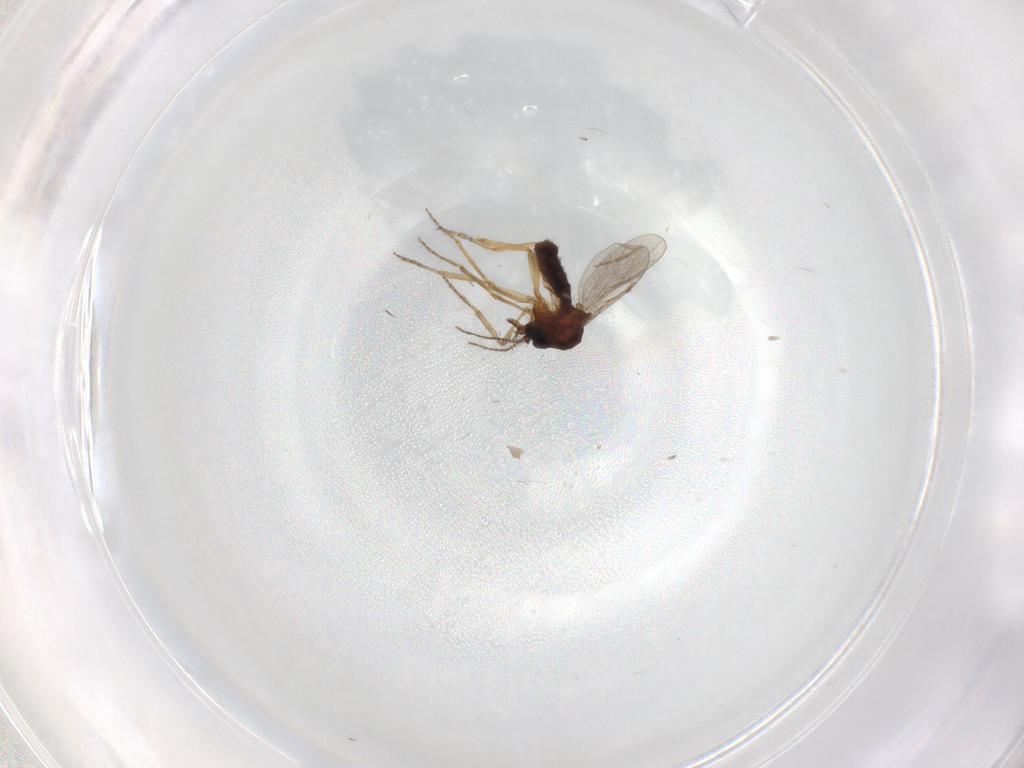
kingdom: Animalia
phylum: Arthropoda
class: Insecta
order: Diptera
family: Ceratopogonidae
